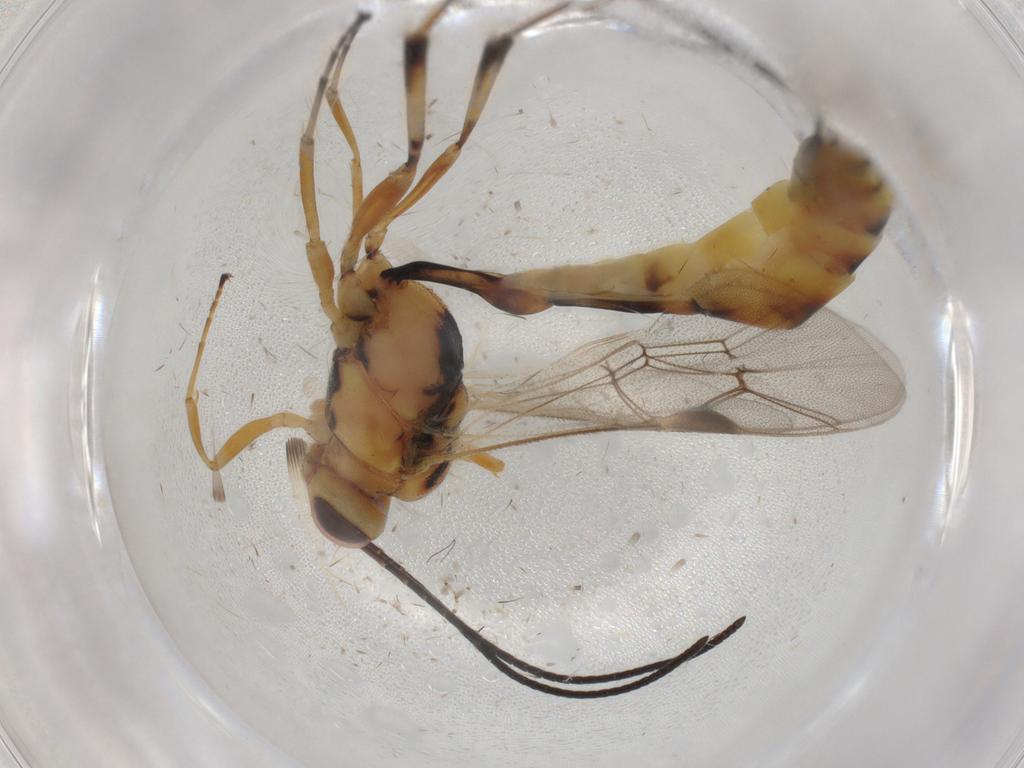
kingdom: Animalia
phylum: Arthropoda
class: Insecta
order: Hymenoptera
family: Ichneumonidae
